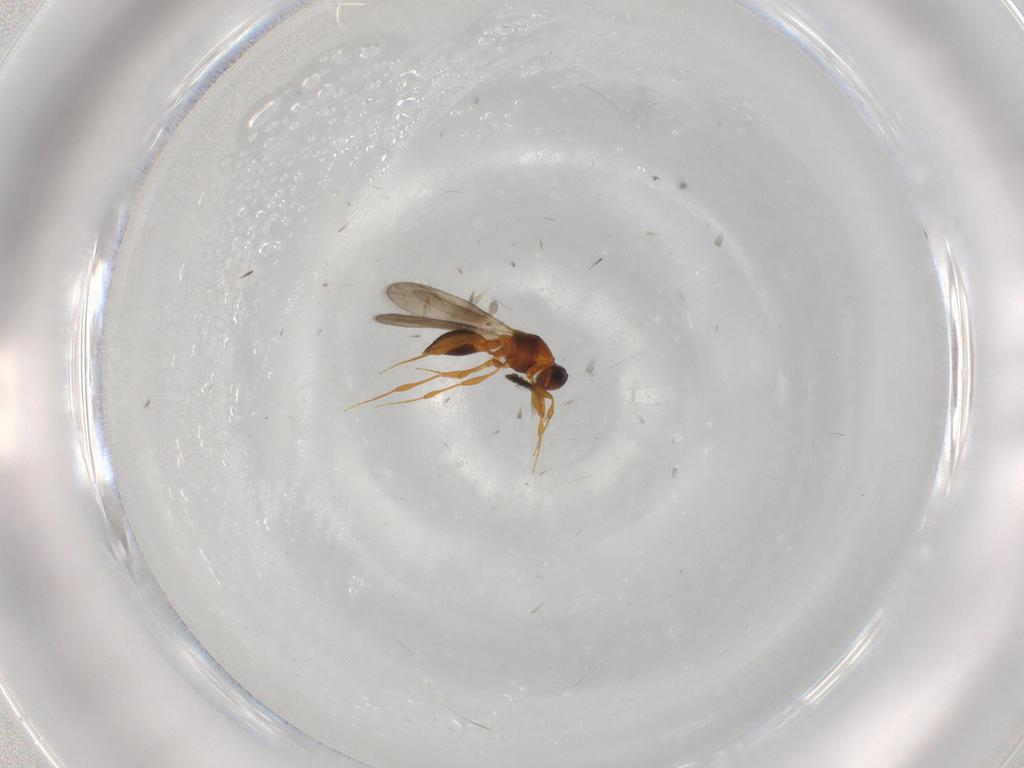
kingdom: Animalia
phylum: Arthropoda
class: Insecta
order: Hymenoptera
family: Platygastridae
